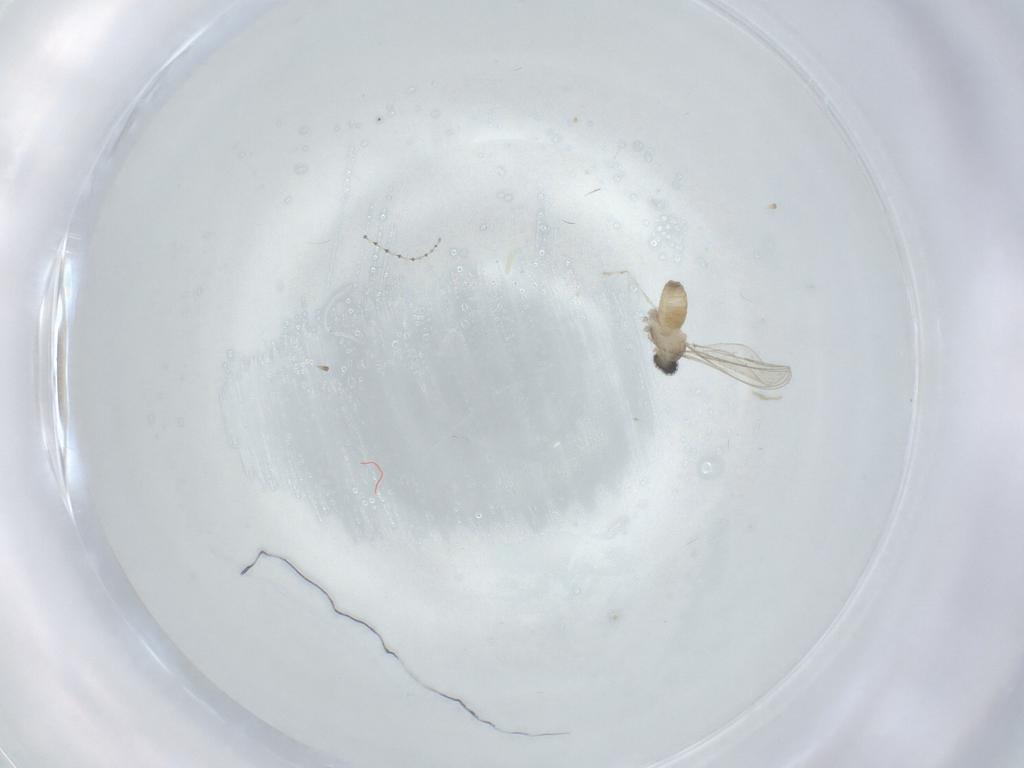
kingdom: Animalia
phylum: Arthropoda
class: Insecta
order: Diptera
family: Cecidomyiidae
